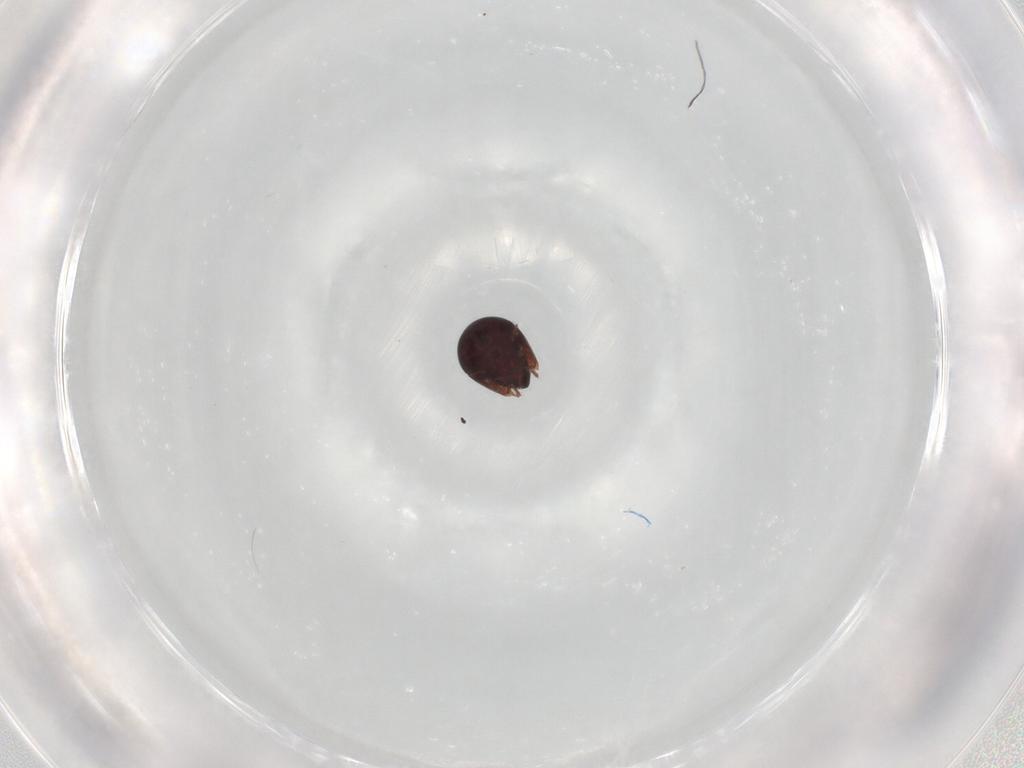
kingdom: Animalia
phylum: Arthropoda
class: Arachnida
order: Sarcoptiformes
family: Galumnidae
